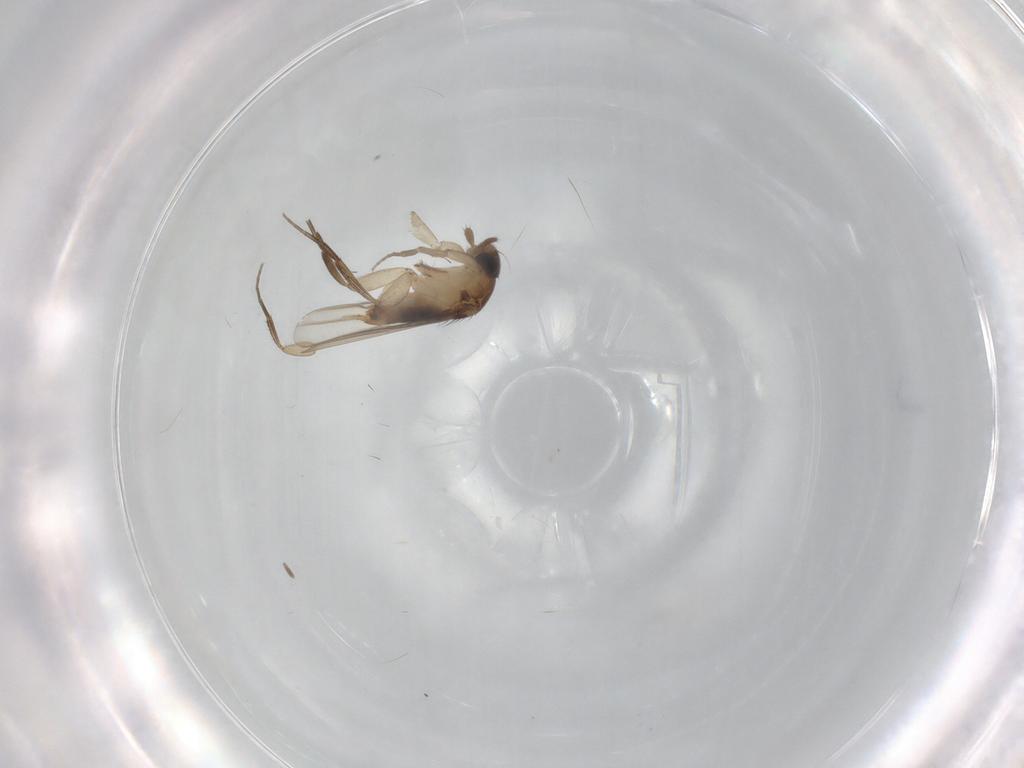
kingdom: Animalia
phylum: Arthropoda
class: Insecta
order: Diptera
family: Phoridae
